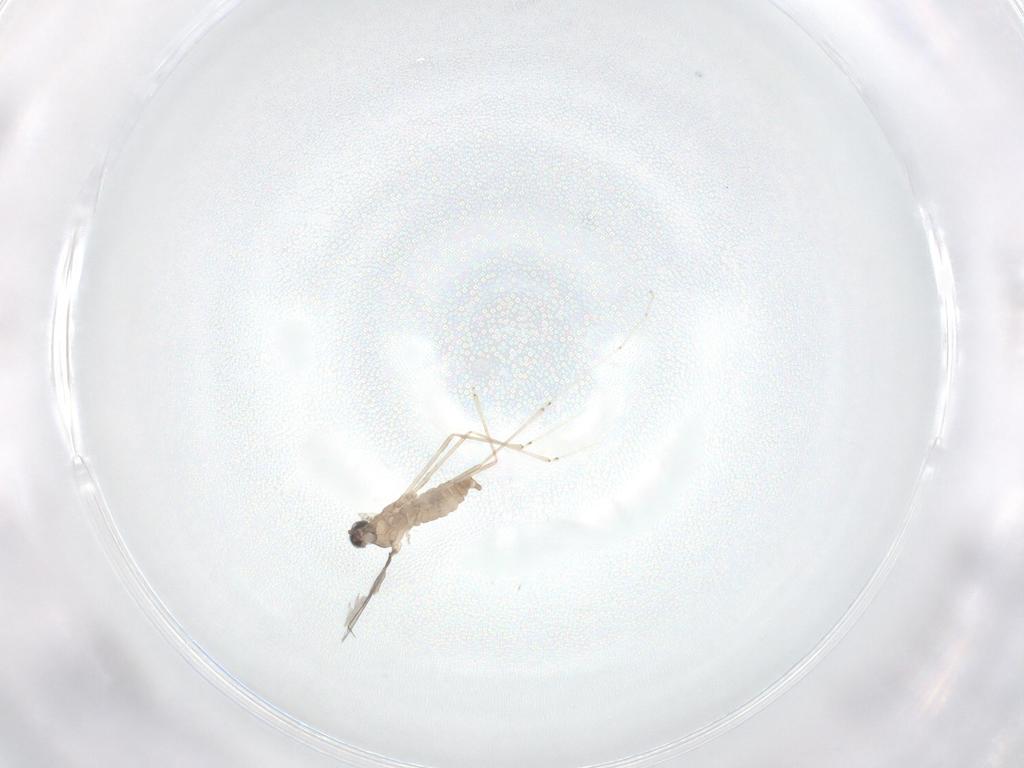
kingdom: Animalia
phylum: Arthropoda
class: Insecta
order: Diptera
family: Cecidomyiidae
